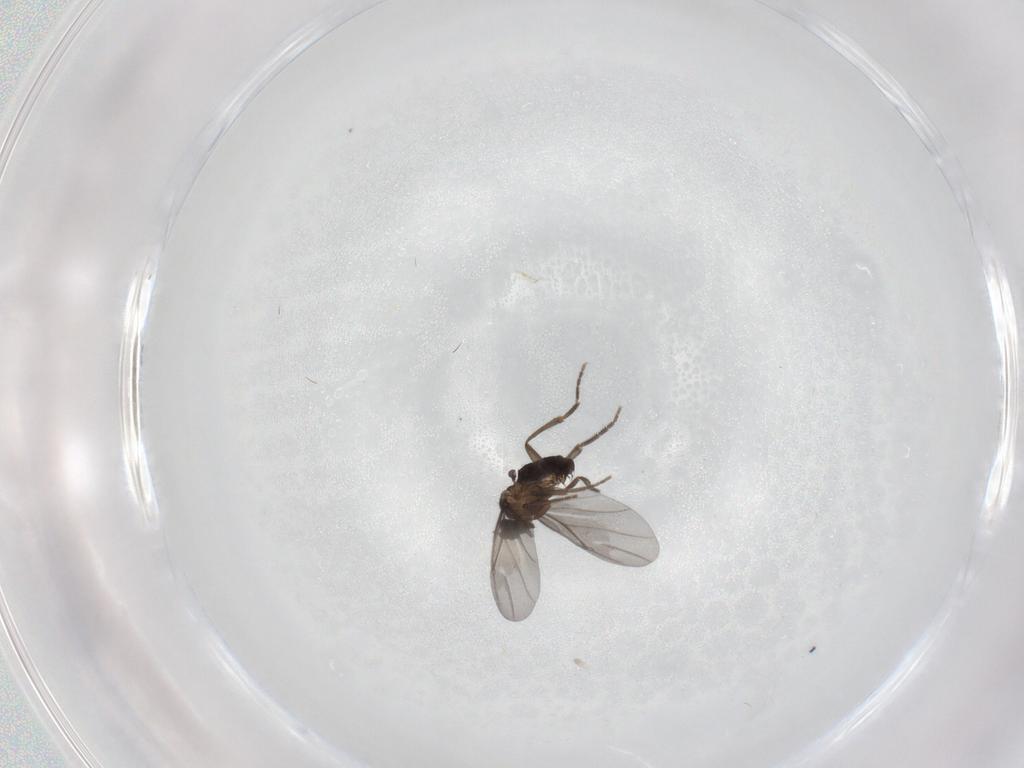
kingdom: Animalia
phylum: Arthropoda
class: Insecta
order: Diptera
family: Phoridae
